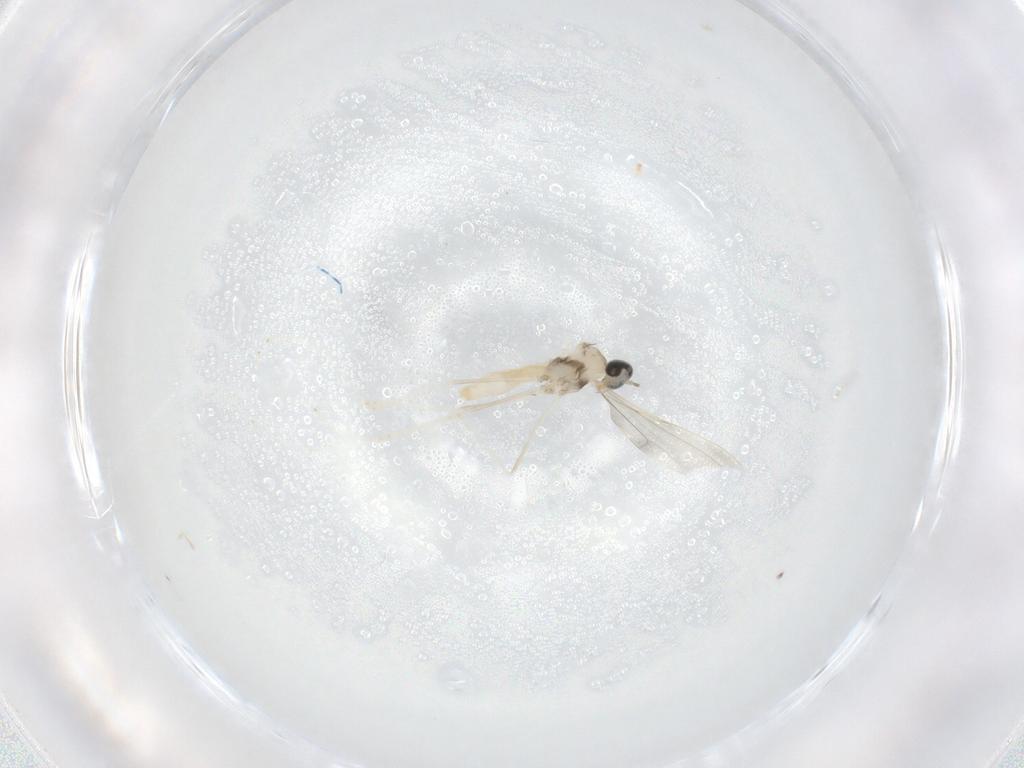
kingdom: Animalia
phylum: Arthropoda
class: Insecta
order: Diptera
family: Cecidomyiidae
